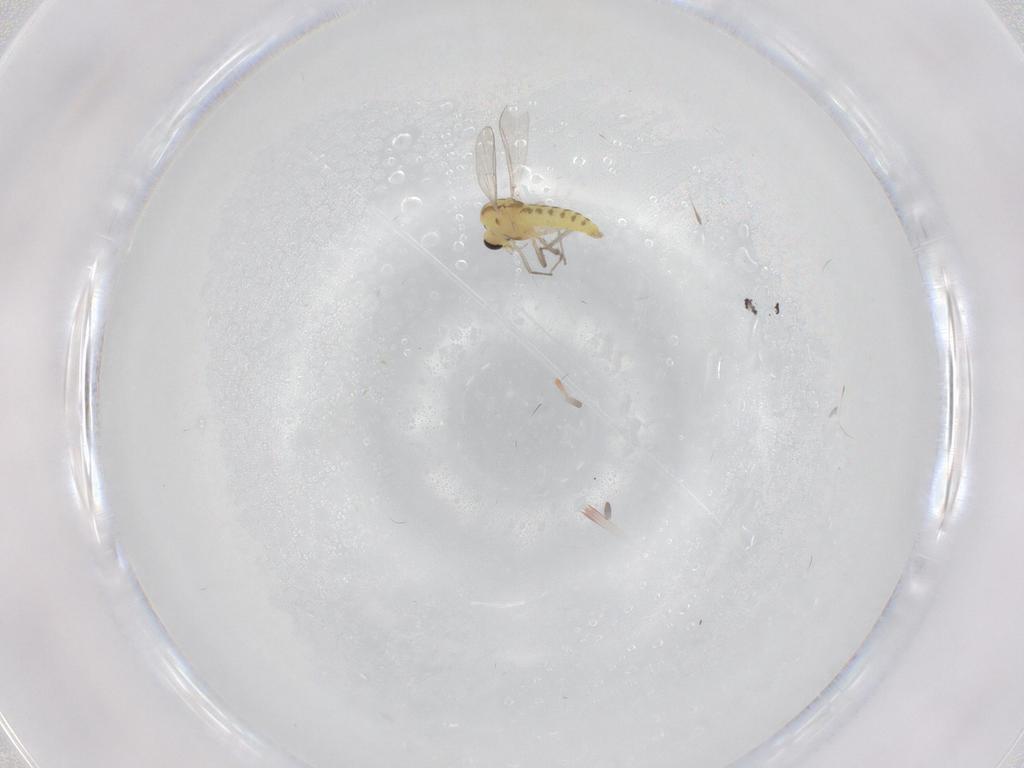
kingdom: Animalia
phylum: Arthropoda
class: Insecta
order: Diptera
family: Chironomidae
